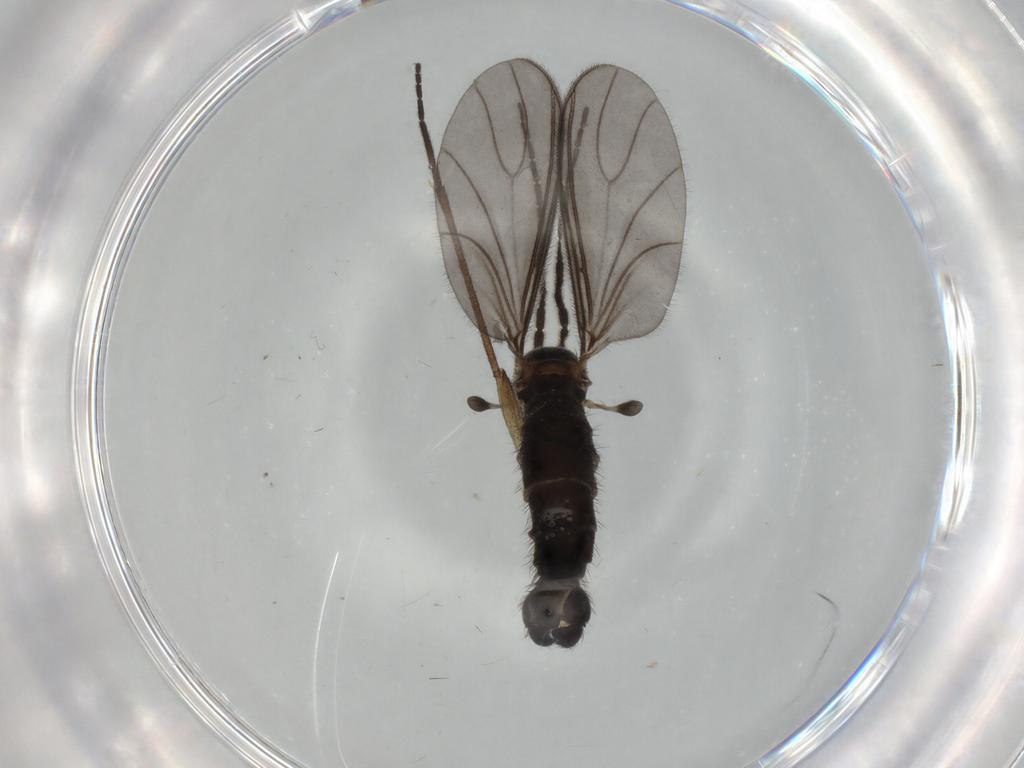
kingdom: Animalia
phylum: Arthropoda
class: Insecta
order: Diptera
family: Sciaridae
